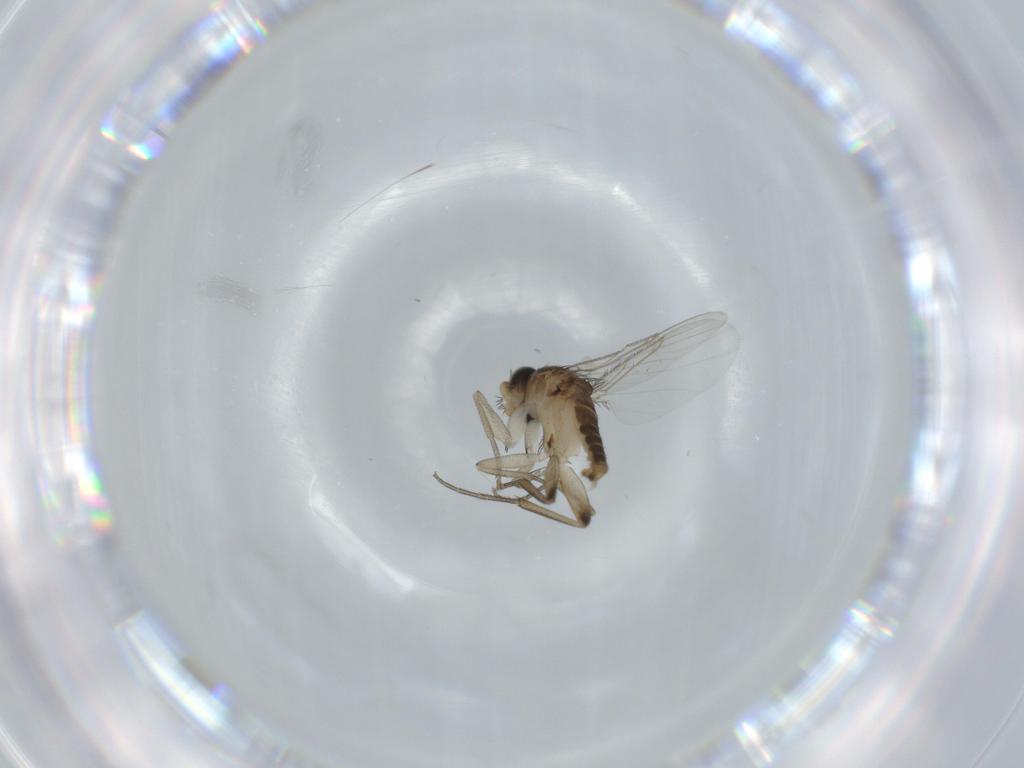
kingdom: Animalia
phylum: Arthropoda
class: Insecta
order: Diptera
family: Phoridae
